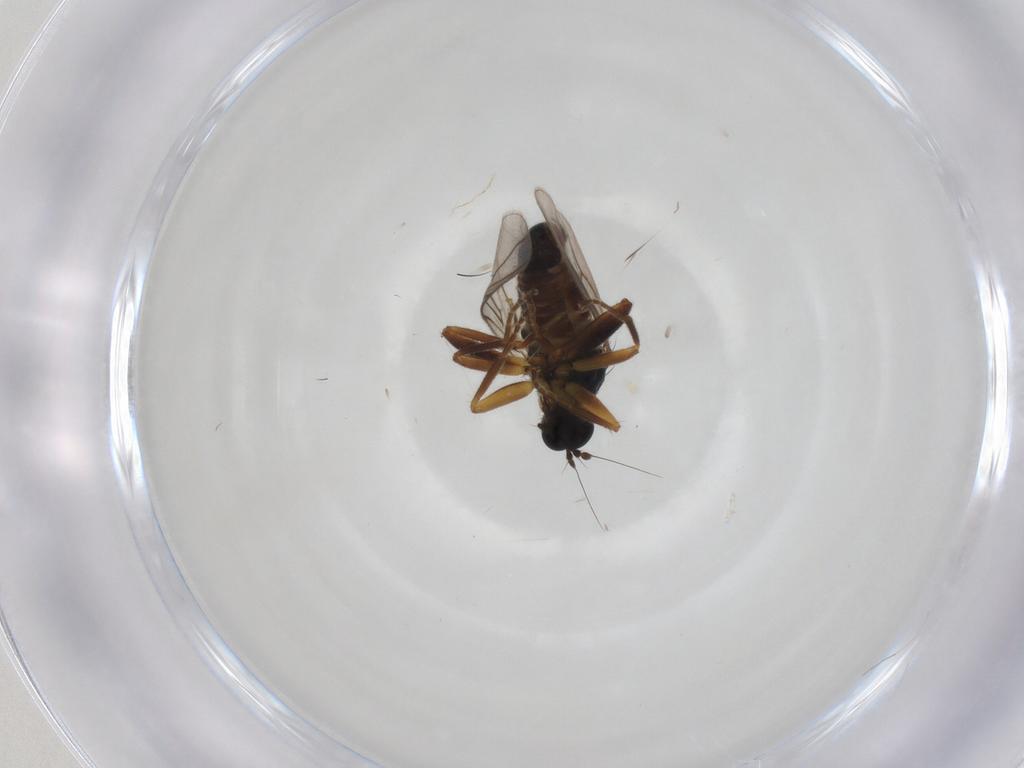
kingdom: Animalia
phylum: Arthropoda
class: Insecta
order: Diptera
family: Hybotidae
